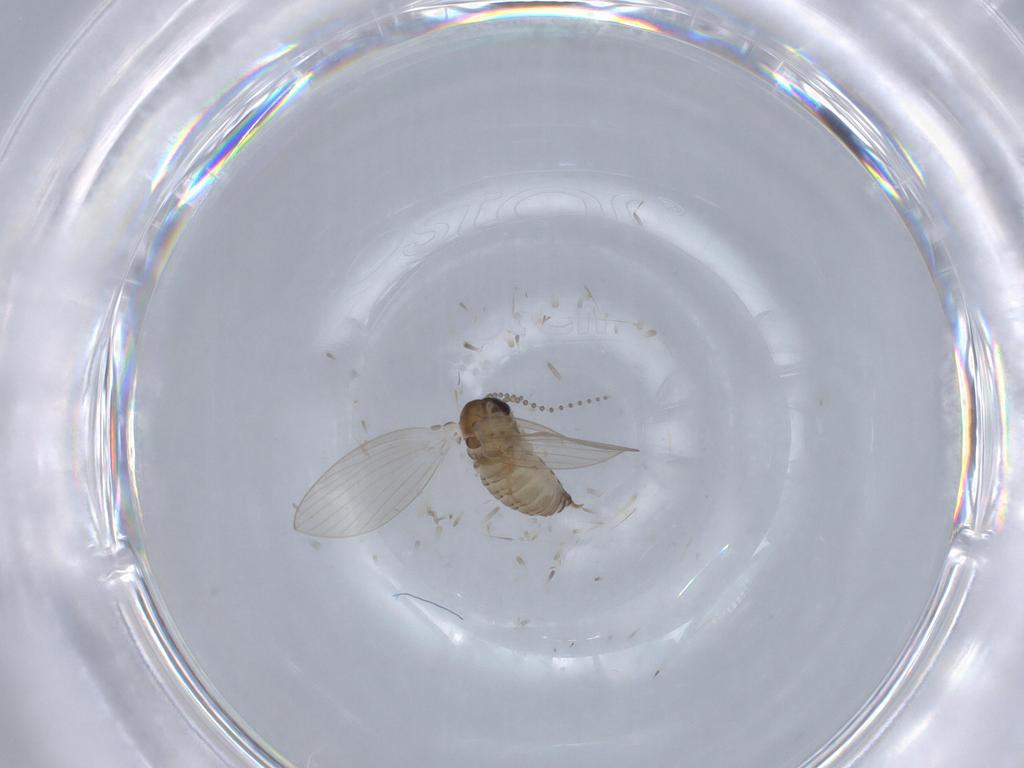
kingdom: Animalia
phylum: Arthropoda
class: Insecta
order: Diptera
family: Psychodidae
